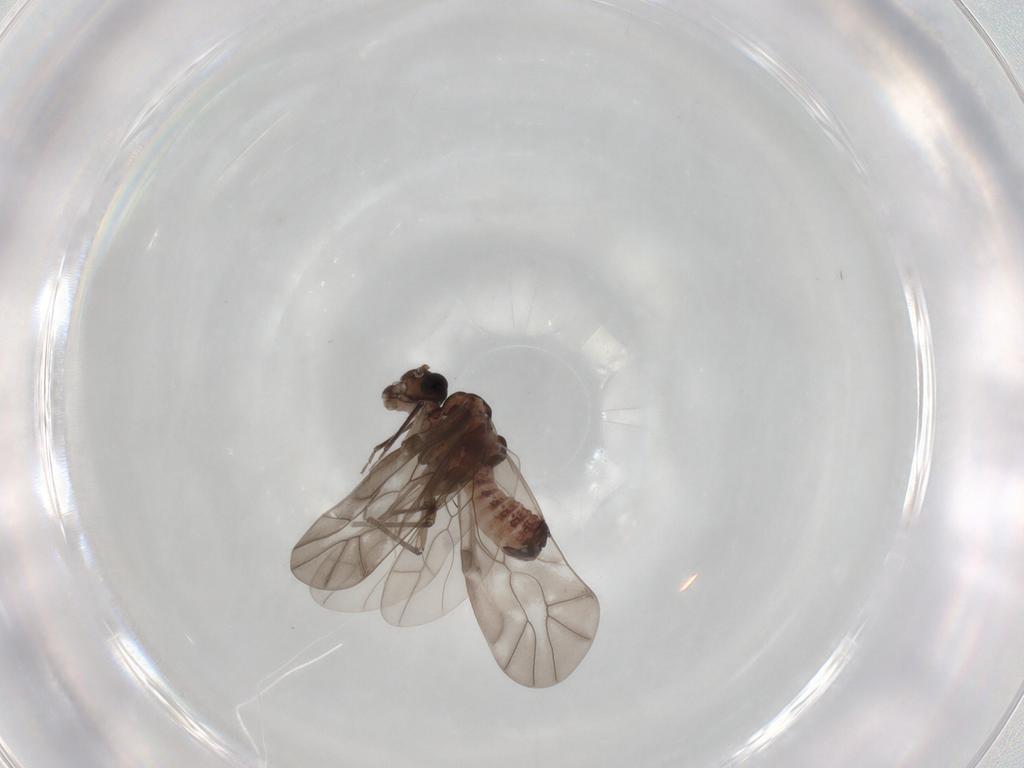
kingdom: Animalia
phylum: Arthropoda
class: Insecta
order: Psocodea
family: Peripsocidae
